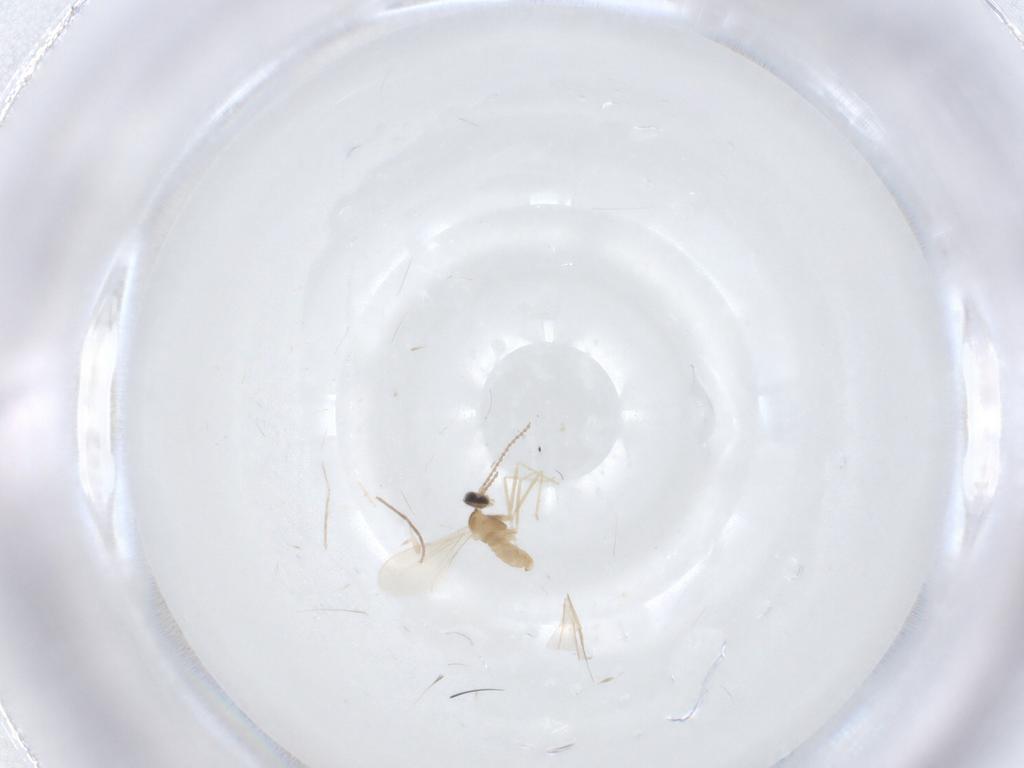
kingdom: Animalia
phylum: Arthropoda
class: Insecta
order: Diptera
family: Cecidomyiidae
